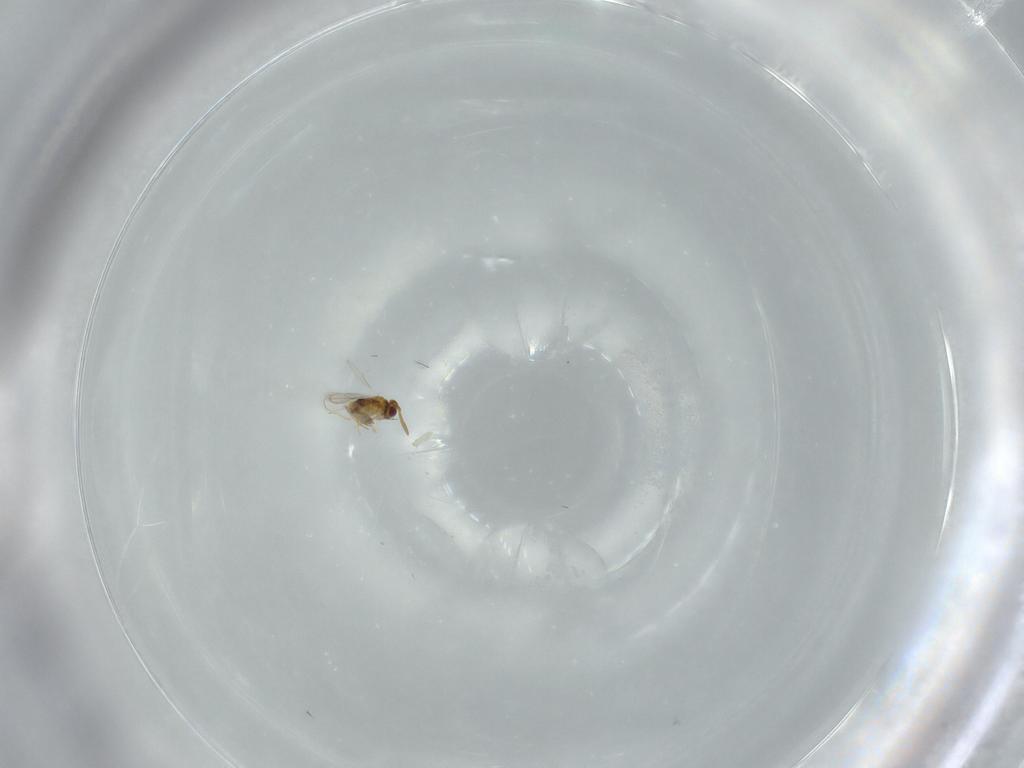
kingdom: Animalia
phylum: Arthropoda
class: Insecta
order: Hymenoptera
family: Aphelinidae
